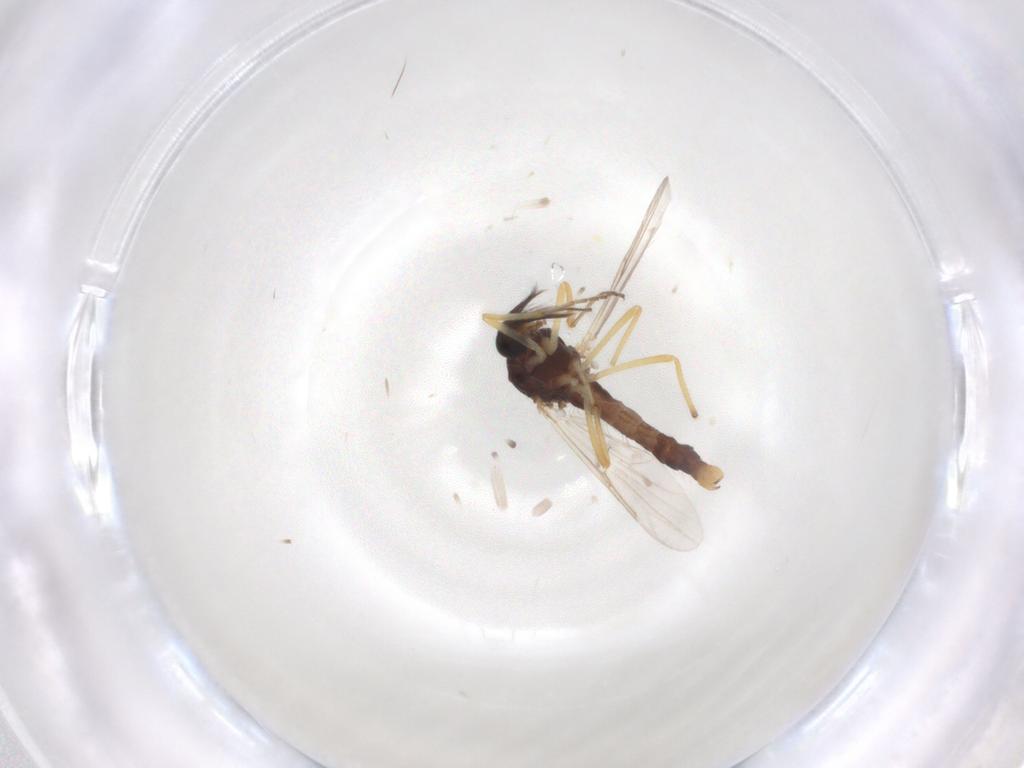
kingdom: Animalia
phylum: Arthropoda
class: Insecta
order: Diptera
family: Ceratopogonidae
